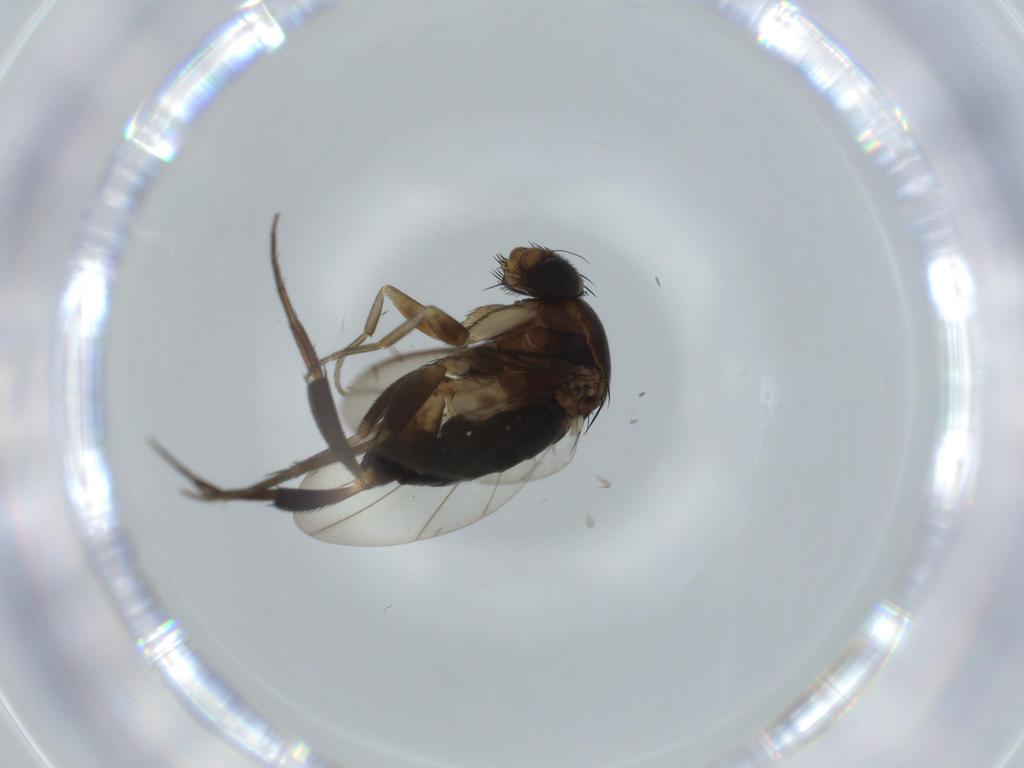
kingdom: Animalia
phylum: Arthropoda
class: Insecta
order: Diptera
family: Phoridae
